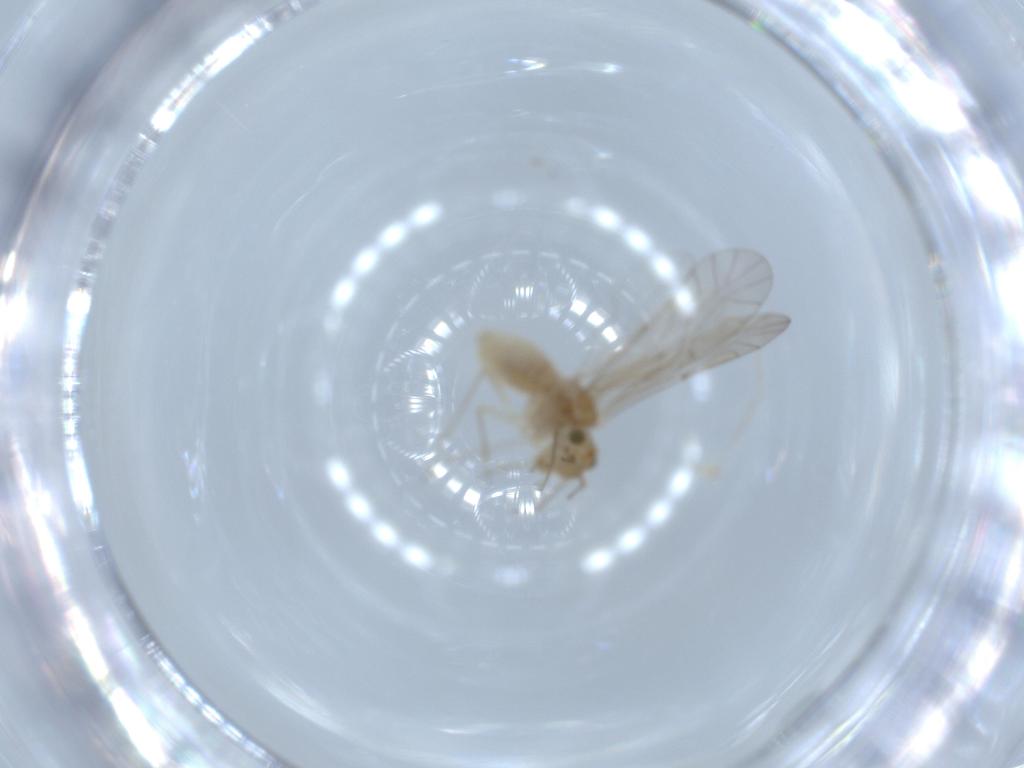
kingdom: Animalia
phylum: Arthropoda
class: Insecta
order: Psocodea
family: Lachesillidae
